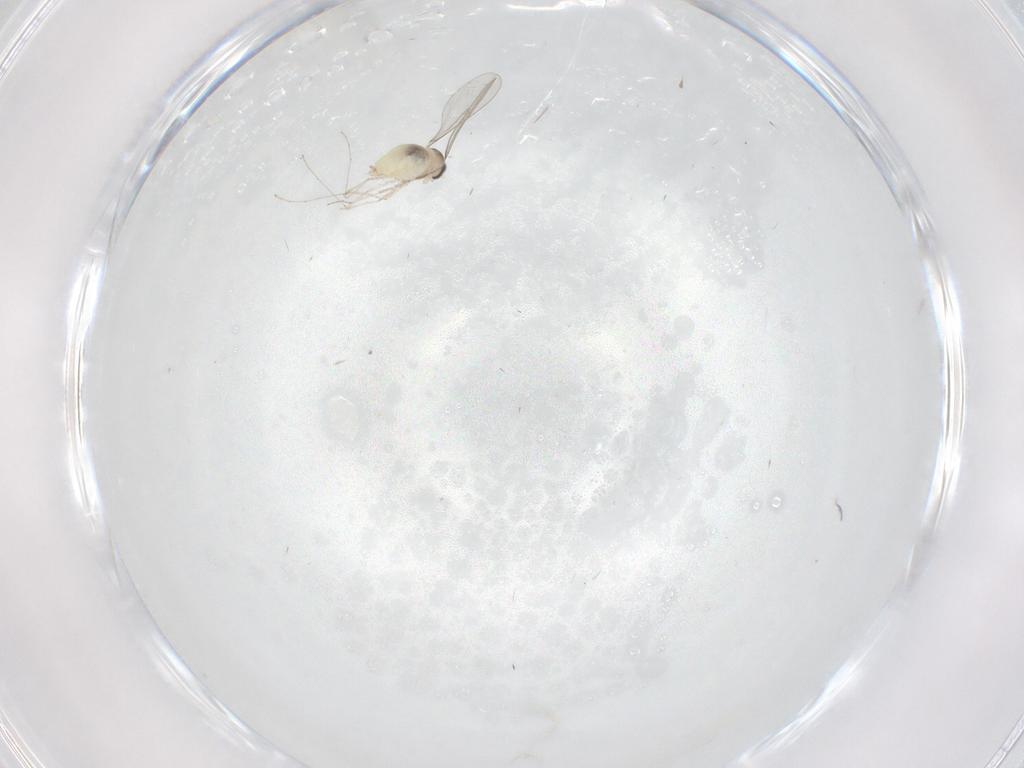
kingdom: Animalia
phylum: Arthropoda
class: Insecta
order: Diptera
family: Cecidomyiidae
